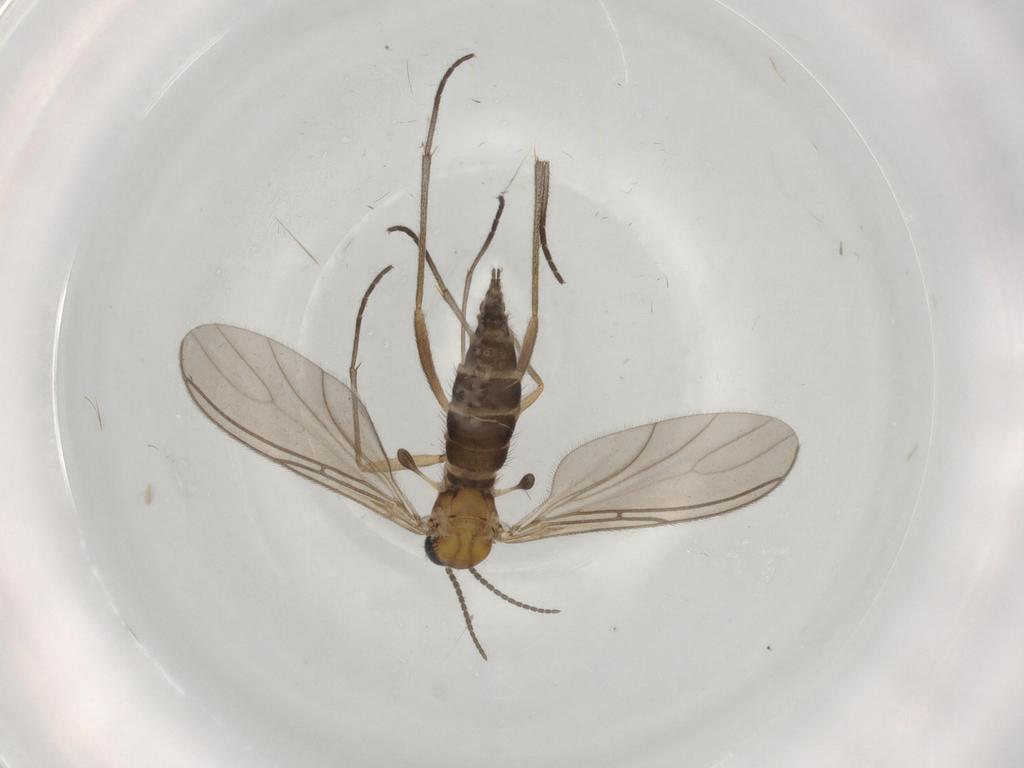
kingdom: Animalia
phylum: Arthropoda
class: Insecta
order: Diptera
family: Sciaridae
